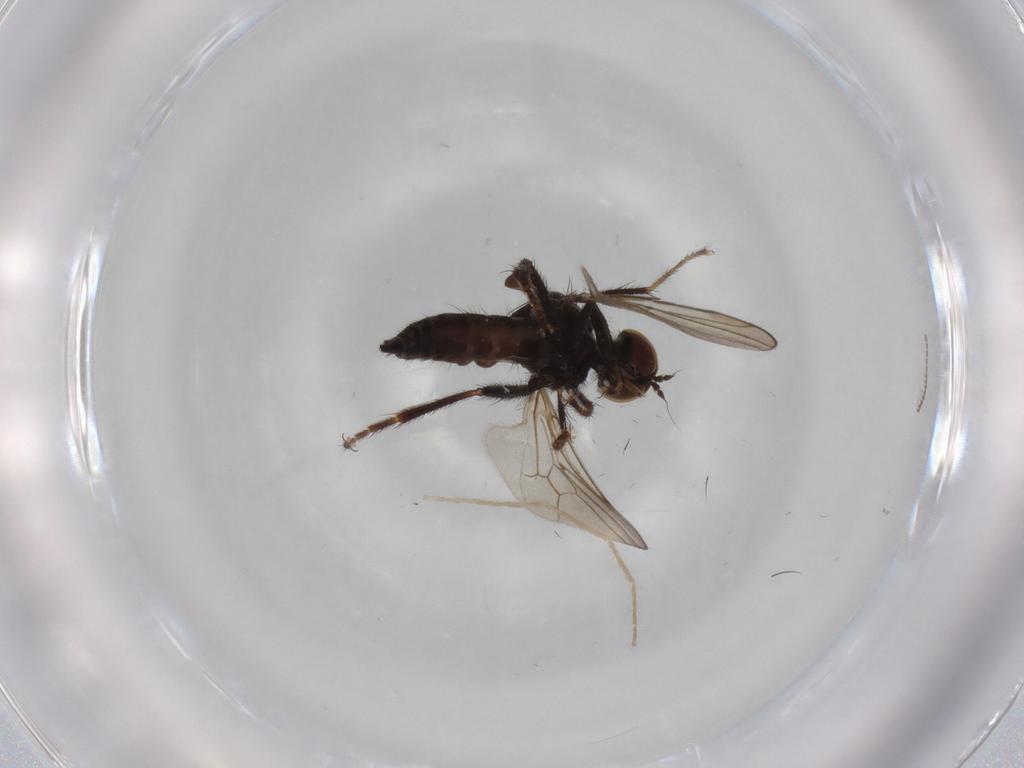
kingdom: Animalia
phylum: Arthropoda
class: Insecta
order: Diptera
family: Hybotidae
